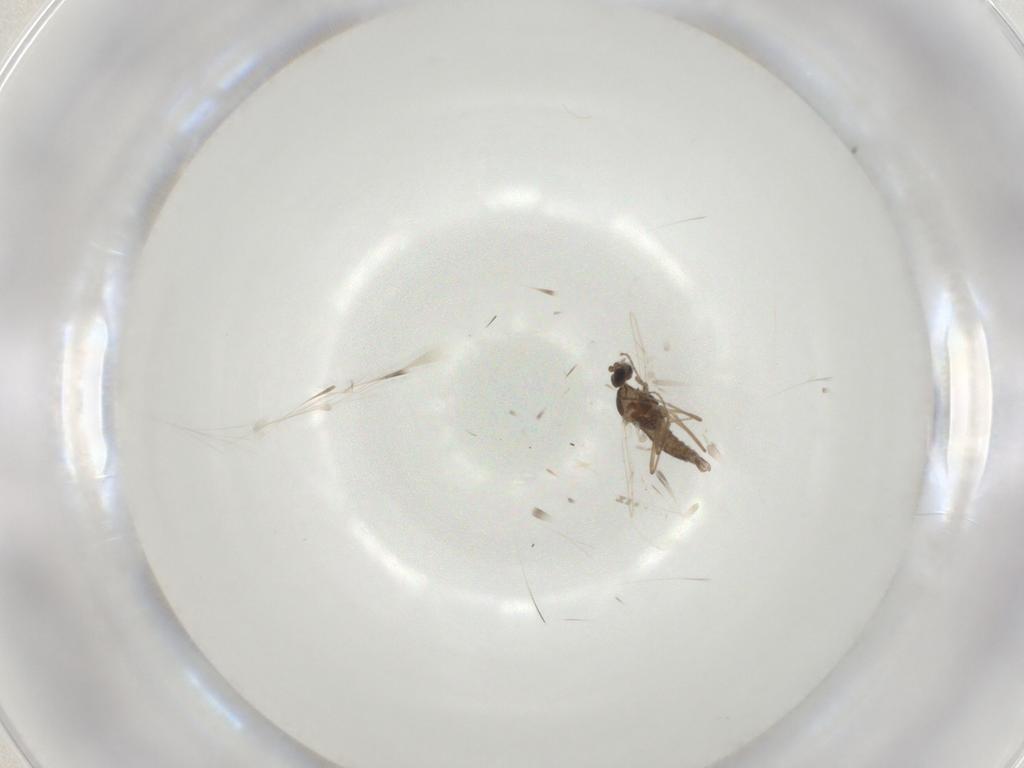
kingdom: Animalia
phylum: Arthropoda
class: Insecta
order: Diptera
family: Cecidomyiidae
